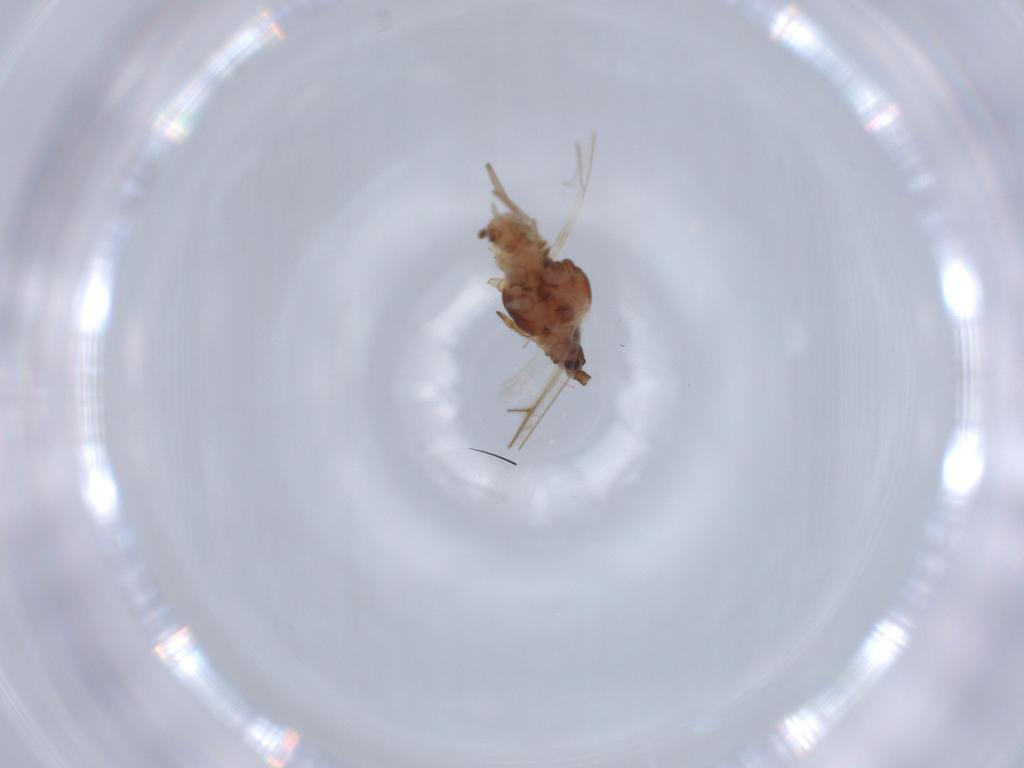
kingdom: Animalia
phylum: Arthropoda
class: Insecta
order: Hemiptera
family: Aphididae
